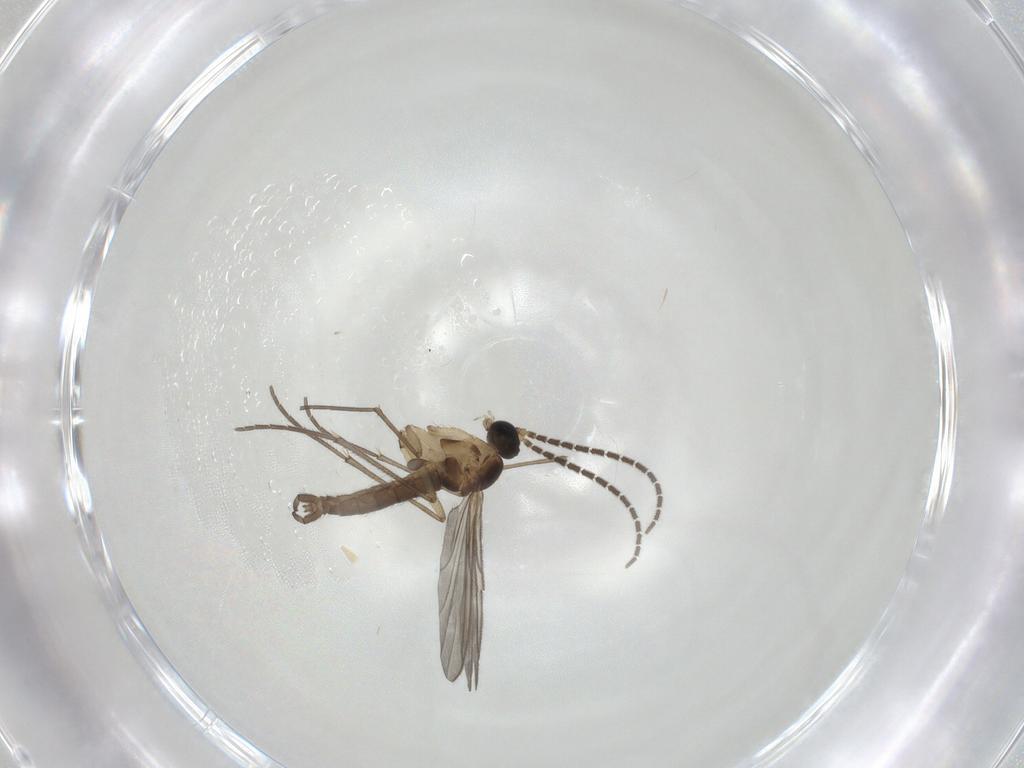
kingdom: Animalia
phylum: Arthropoda
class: Insecta
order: Diptera
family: Sciaridae
